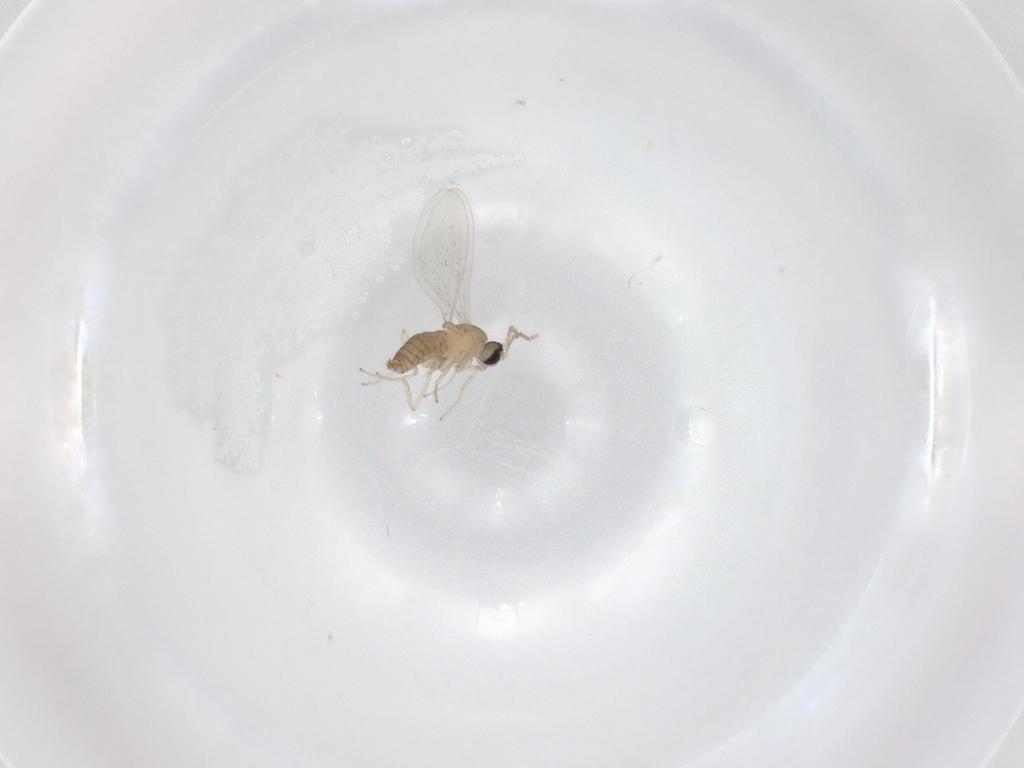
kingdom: Animalia
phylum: Arthropoda
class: Insecta
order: Diptera
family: Cecidomyiidae
